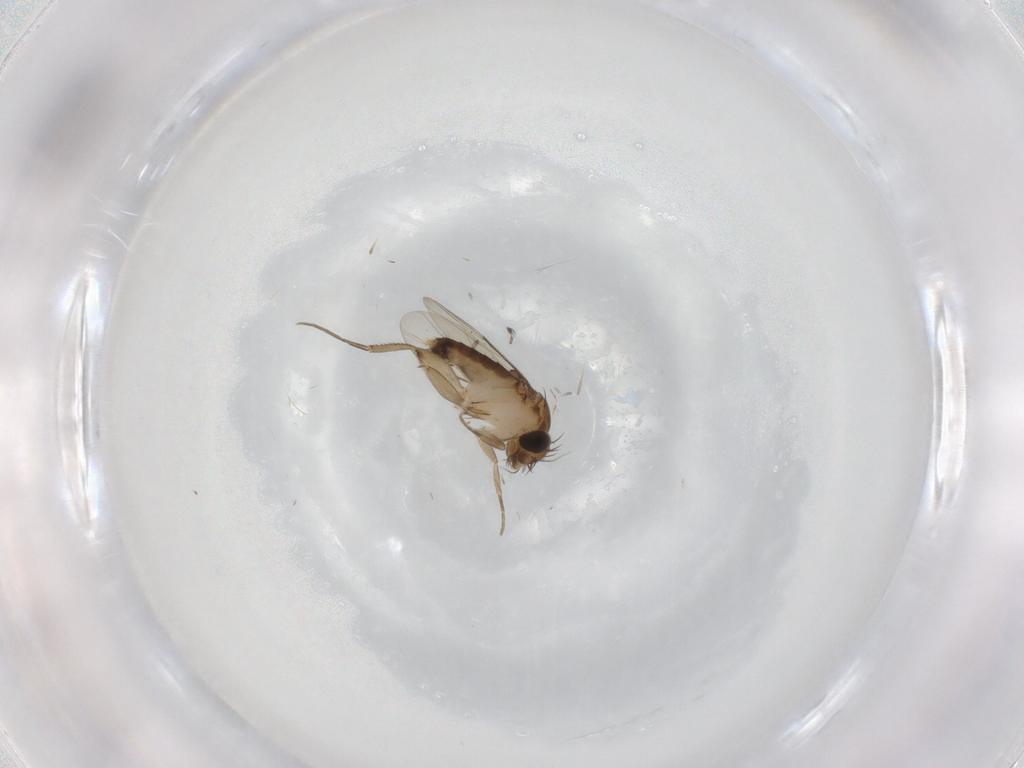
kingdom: Animalia
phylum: Arthropoda
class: Insecta
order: Diptera
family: Phoridae
